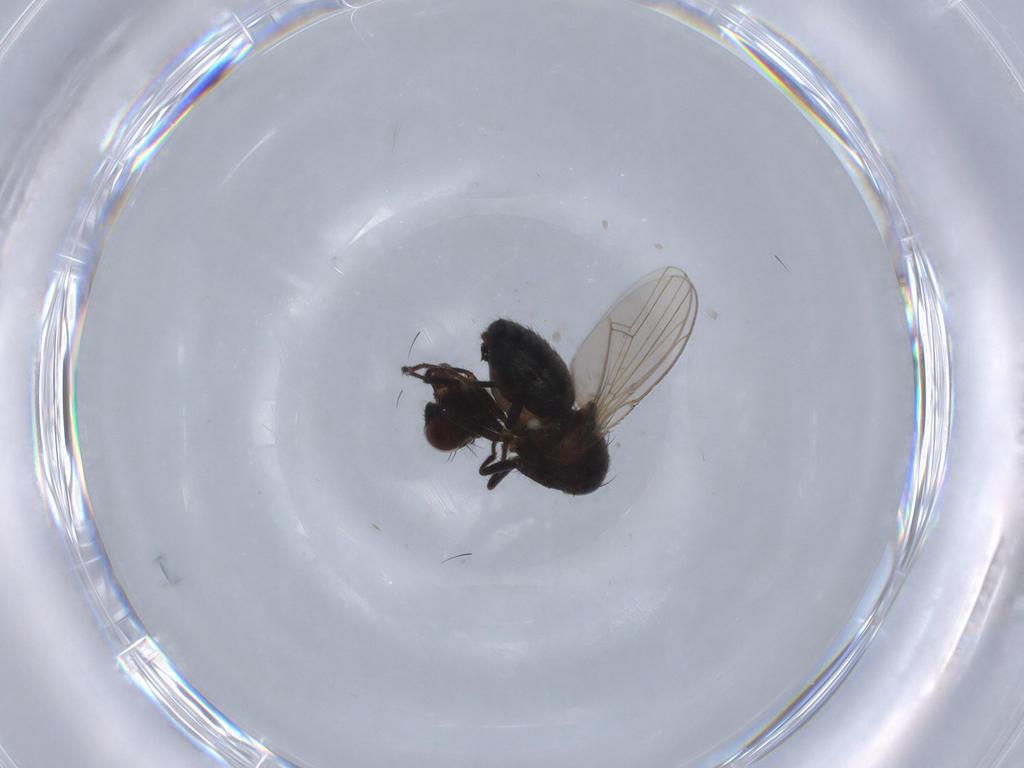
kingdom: Animalia
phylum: Arthropoda
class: Insecta
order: Diptera
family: Ephydridae
